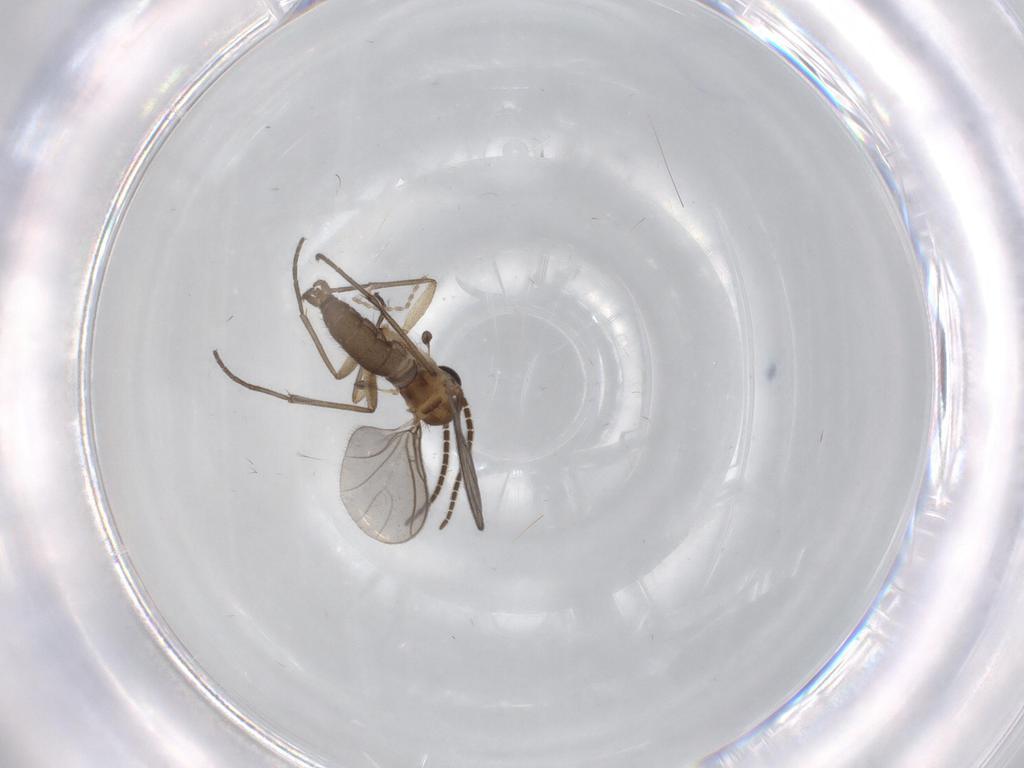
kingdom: Animalia
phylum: Arthropoda
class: Insecta
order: Diptera
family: Sciaridae
